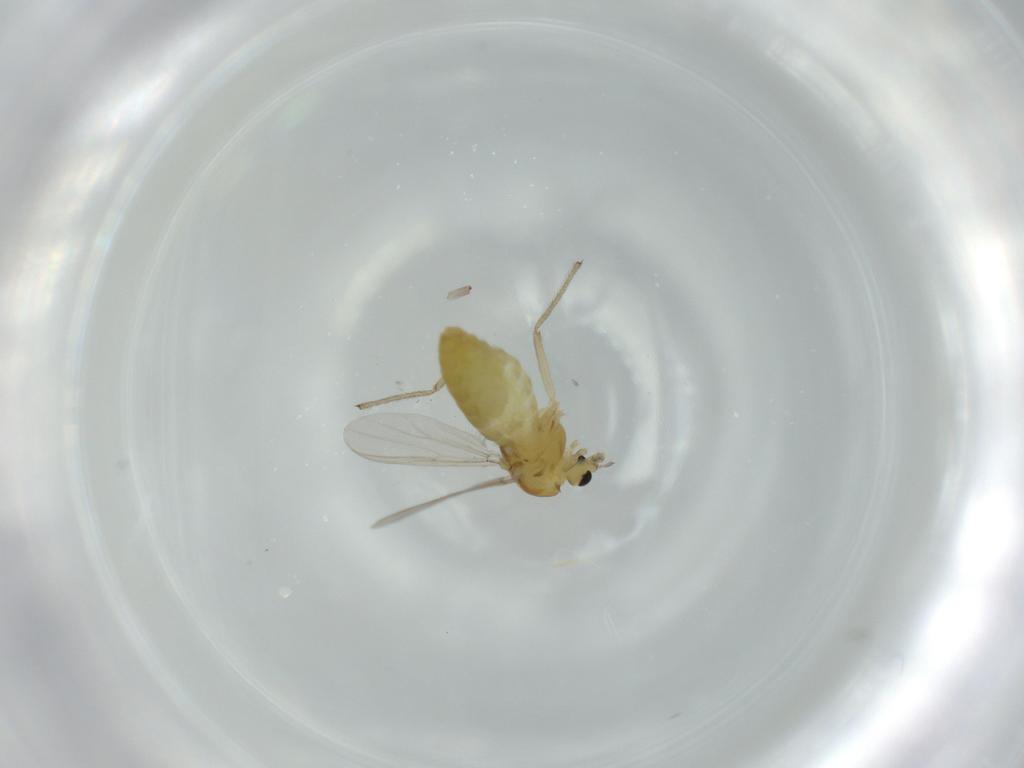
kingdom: Animalia
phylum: Arthropoda
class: Insecta
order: Diptera
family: Chironomidae
